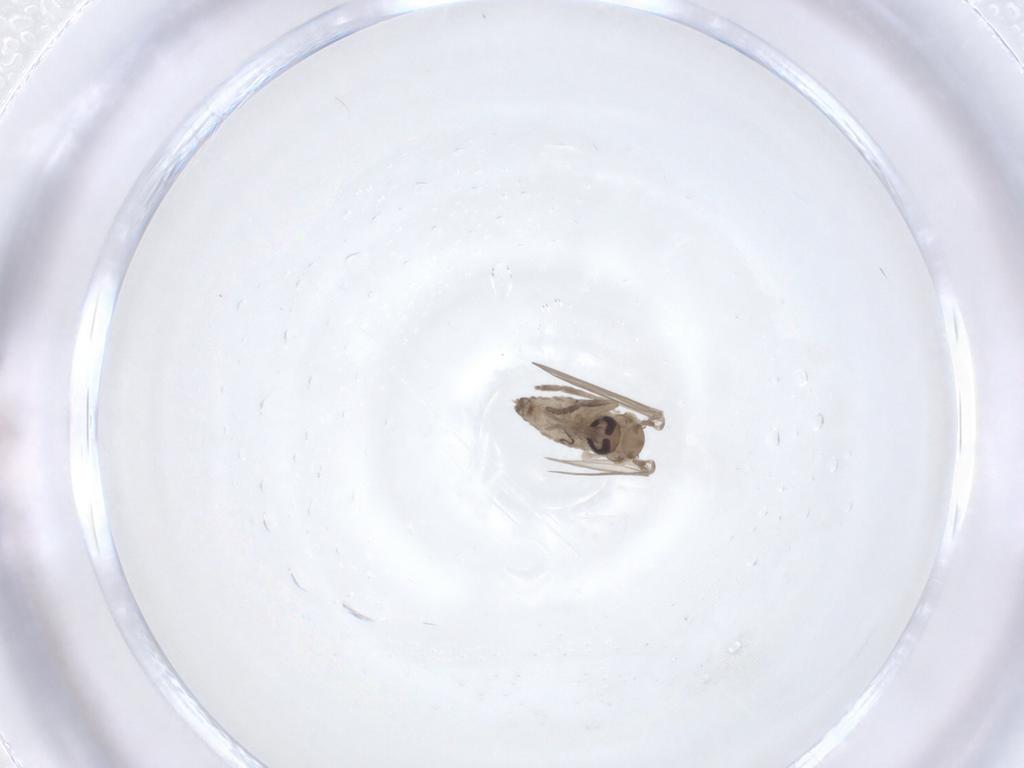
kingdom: Animalia
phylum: Arthropoda
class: Insecta
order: Diptera
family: Psychodidae
